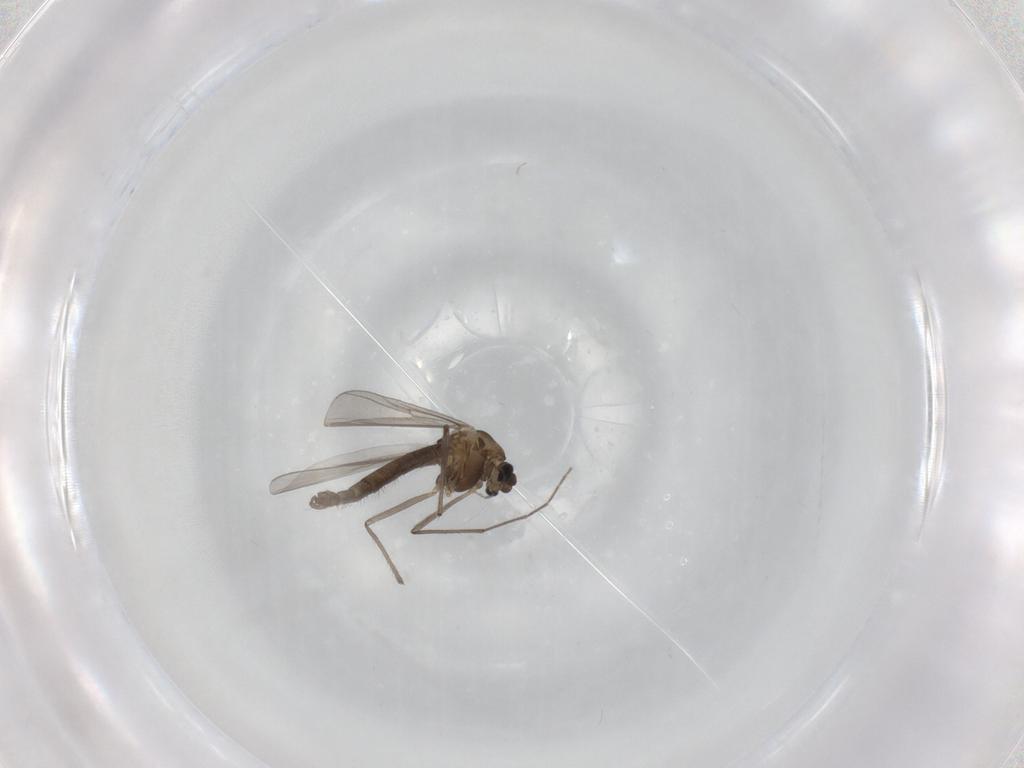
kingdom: Animalia
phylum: Arthropoda
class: Insecta
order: Diptera
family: Chironomidae
